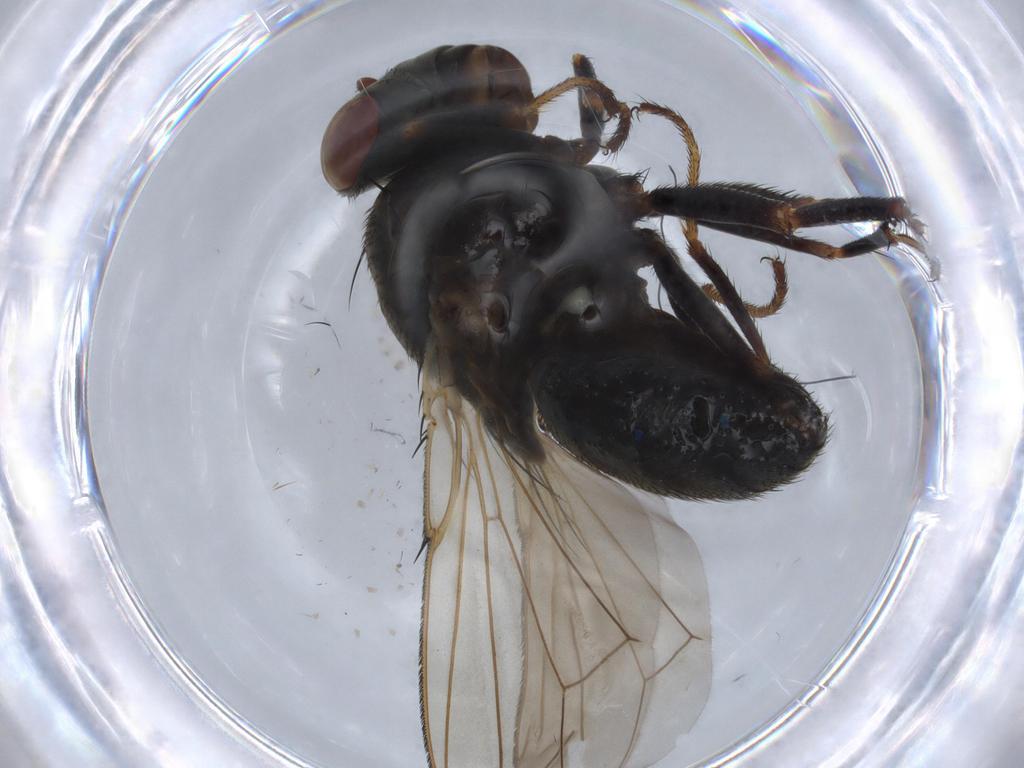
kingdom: Animalia
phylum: Arthropoda
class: Insecta
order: Diptera
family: Ephydridae
